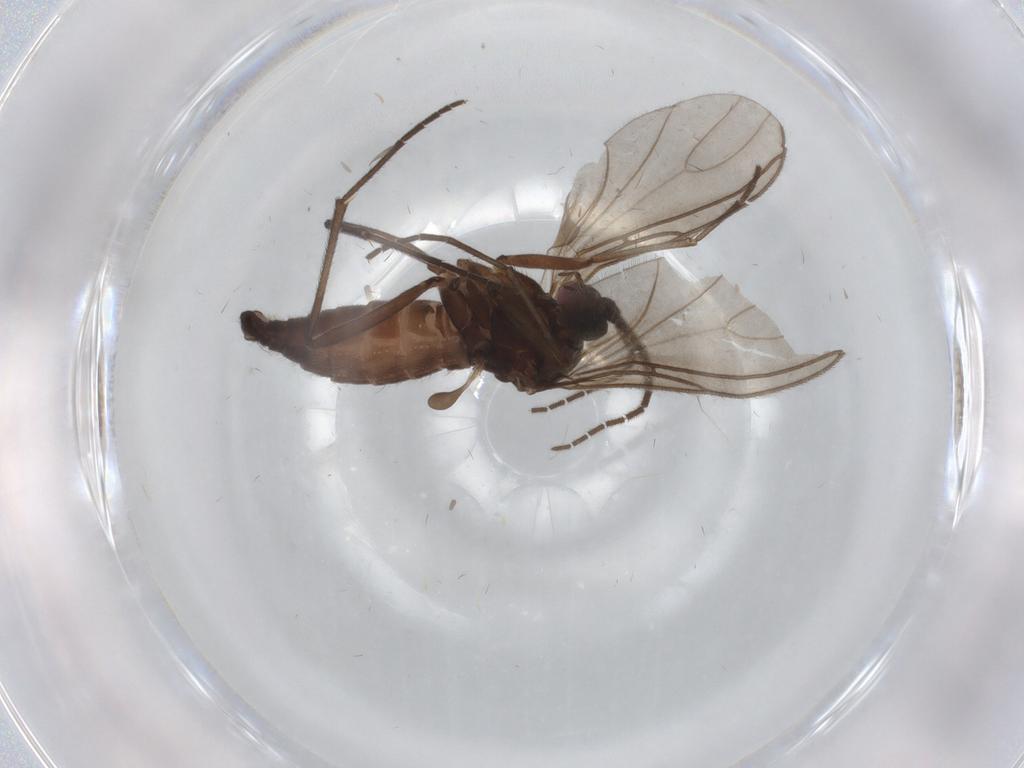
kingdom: Animalia
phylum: Arthropoda
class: Insecta
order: Diptera
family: Sciaridae
